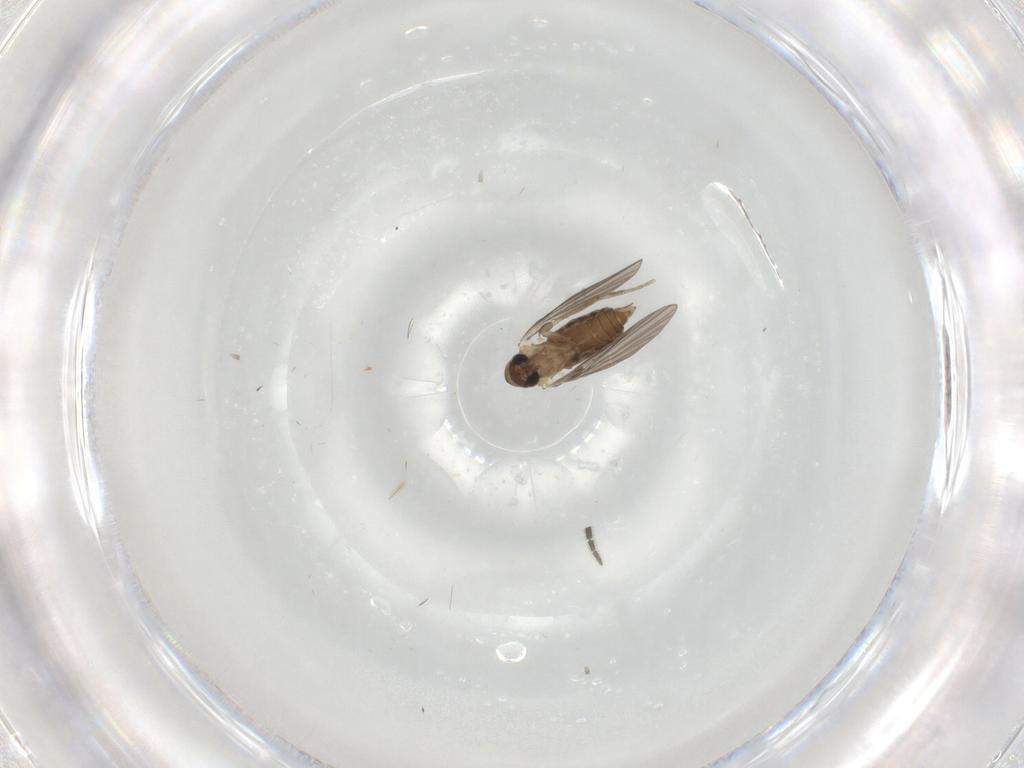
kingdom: Animalia
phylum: Arthropoda
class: Insecta
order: Diptera
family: Sciaridae
